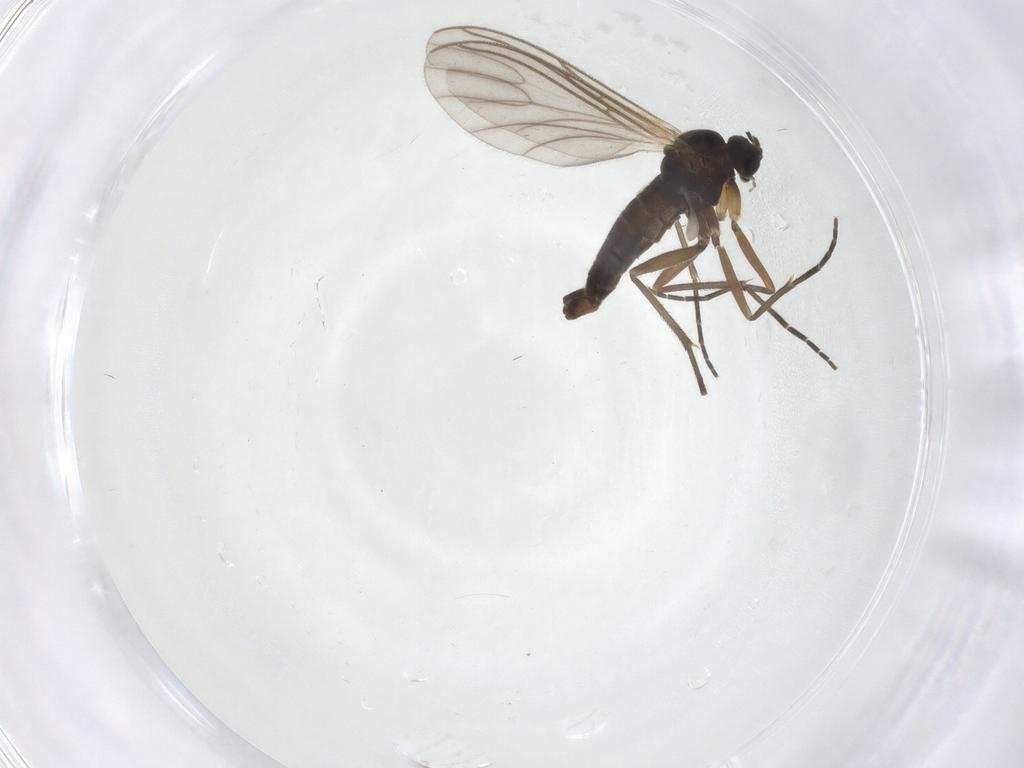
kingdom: Animalia
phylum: Arthropoda
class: Insecta
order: Diptera
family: Sciaridae
